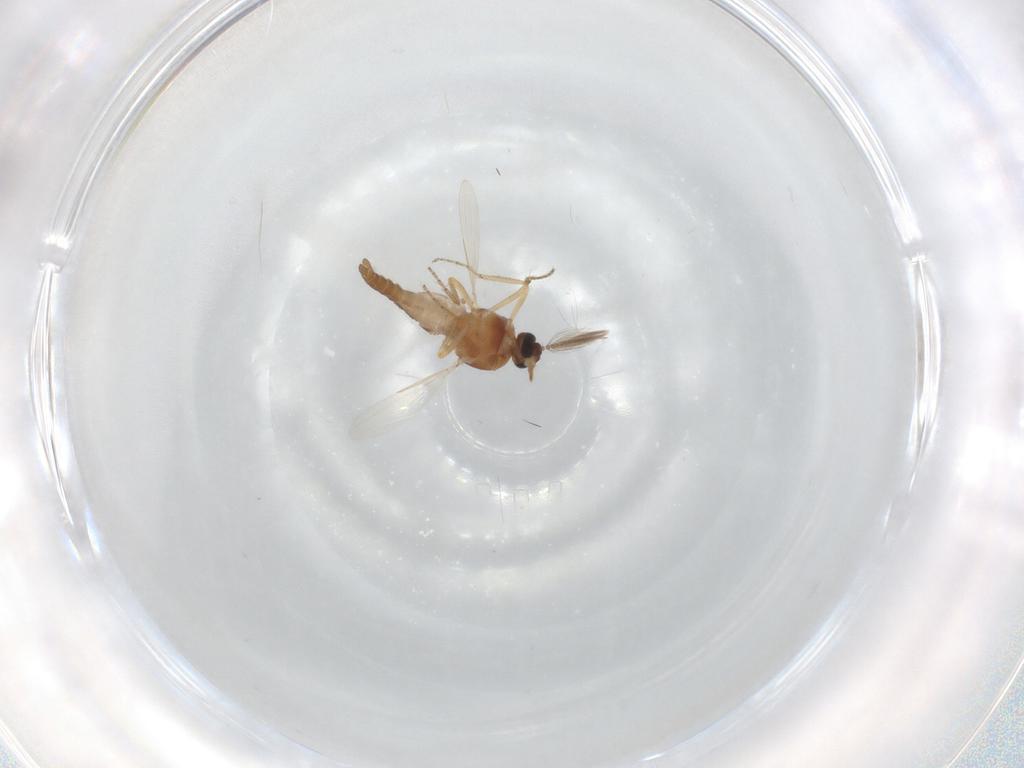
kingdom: Animalia
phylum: Arthropoda
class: Insecta
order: Diptera
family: Ceratopogonidae
